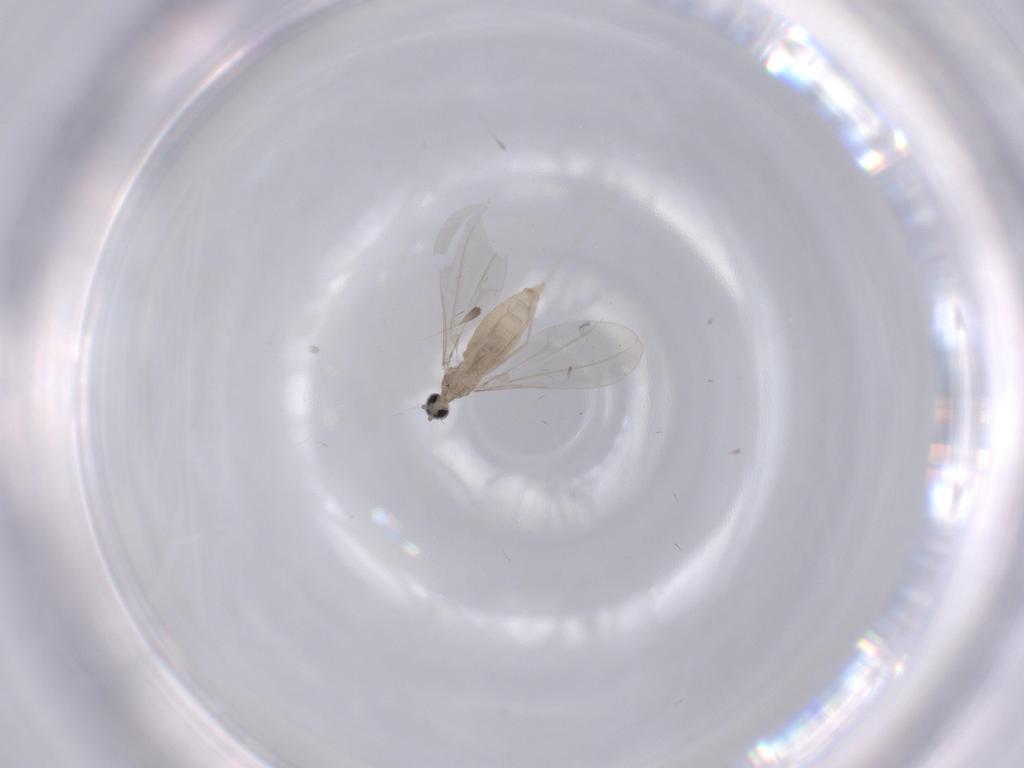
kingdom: Animalia
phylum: Arthropoda
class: Insecta
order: Diptera
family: Cecidomyiidae
